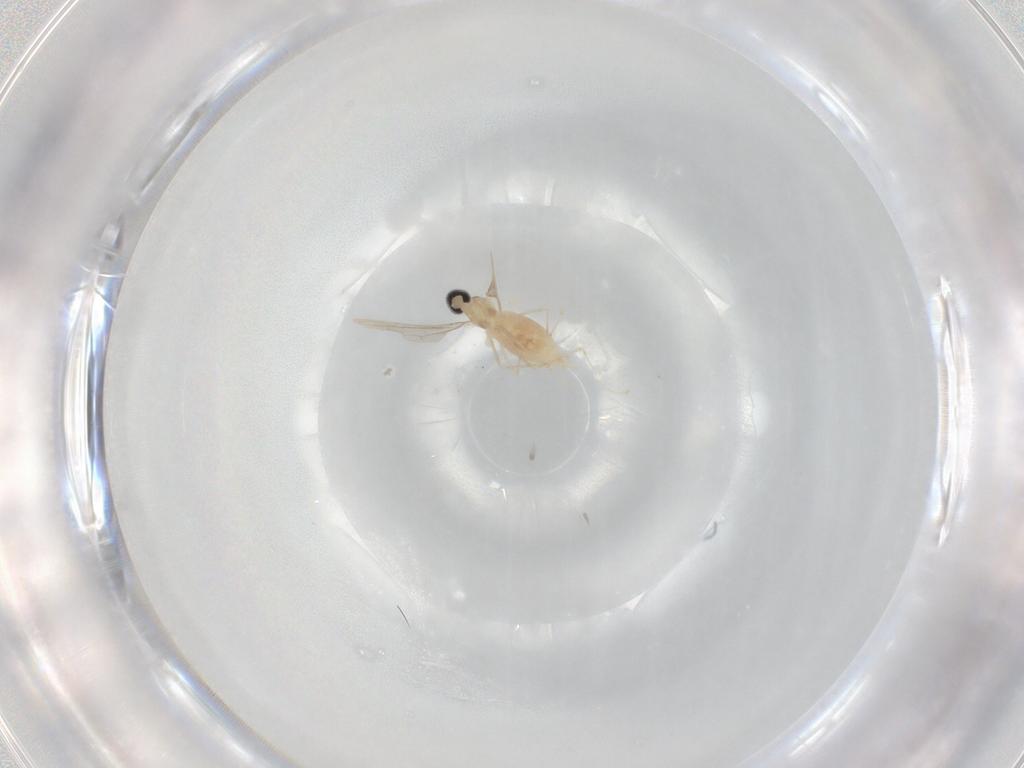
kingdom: Animalia
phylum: Arthropoda
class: Insecta
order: Diptera
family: Cecidomyiidae
